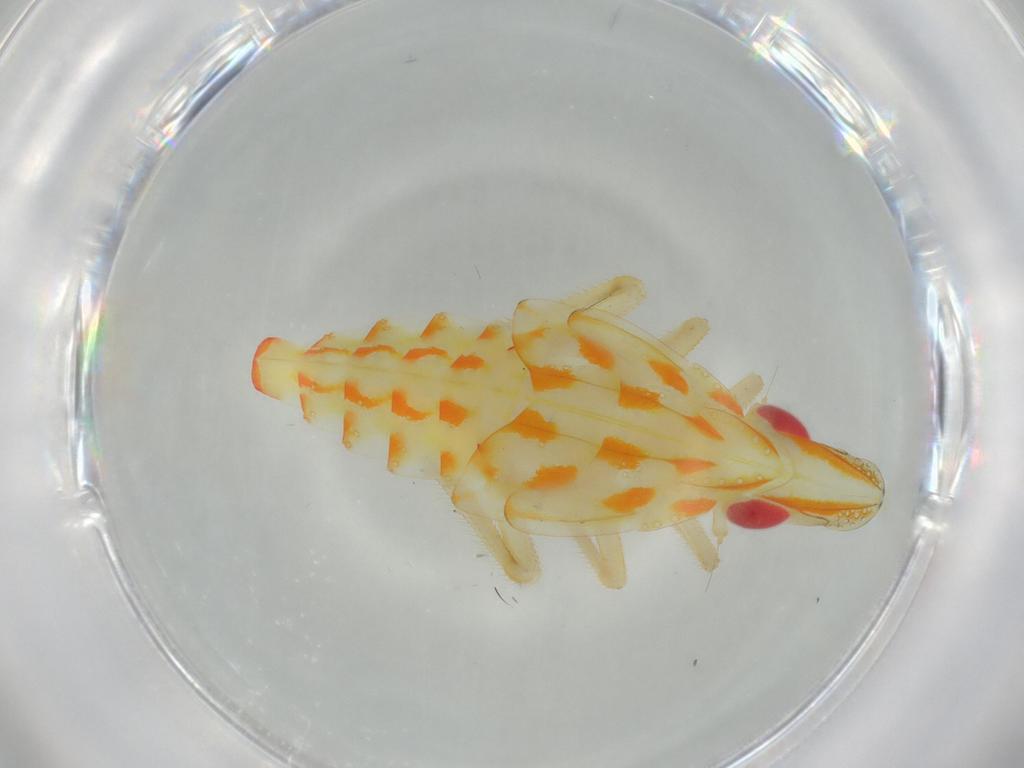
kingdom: Animalia
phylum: Arthropoda
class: Insecta
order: Hemiptera
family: Tropiduchidae
